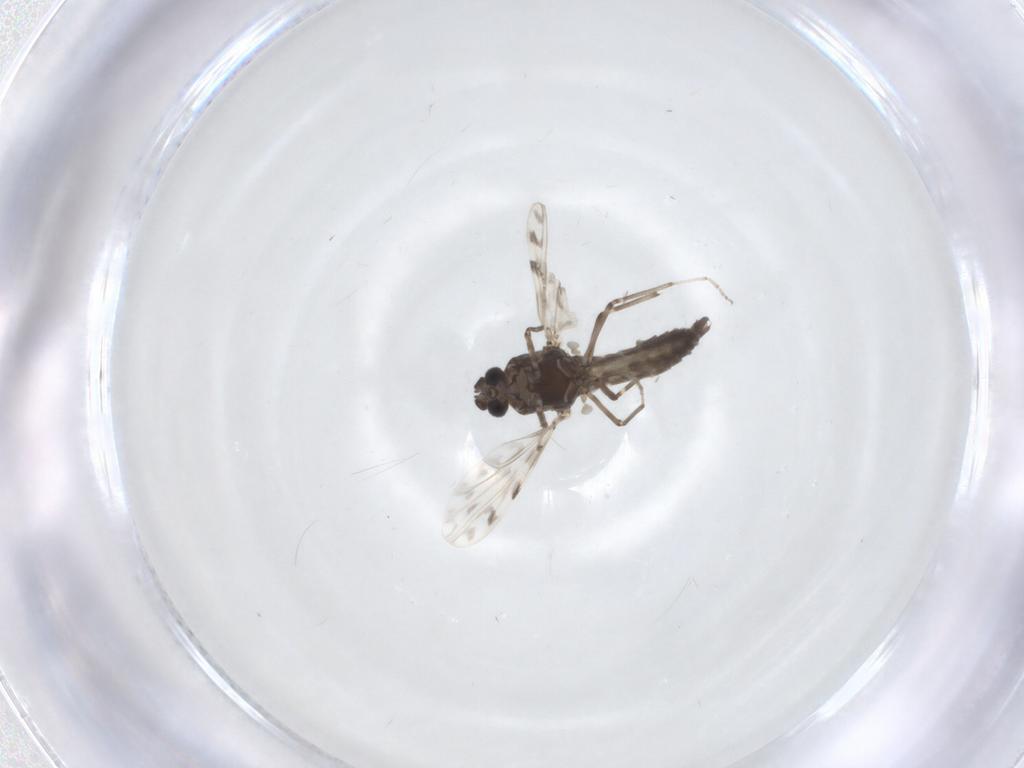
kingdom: Animalia
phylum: Arthropoda
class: Insecta
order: Diptera
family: Ceratopogonidae
